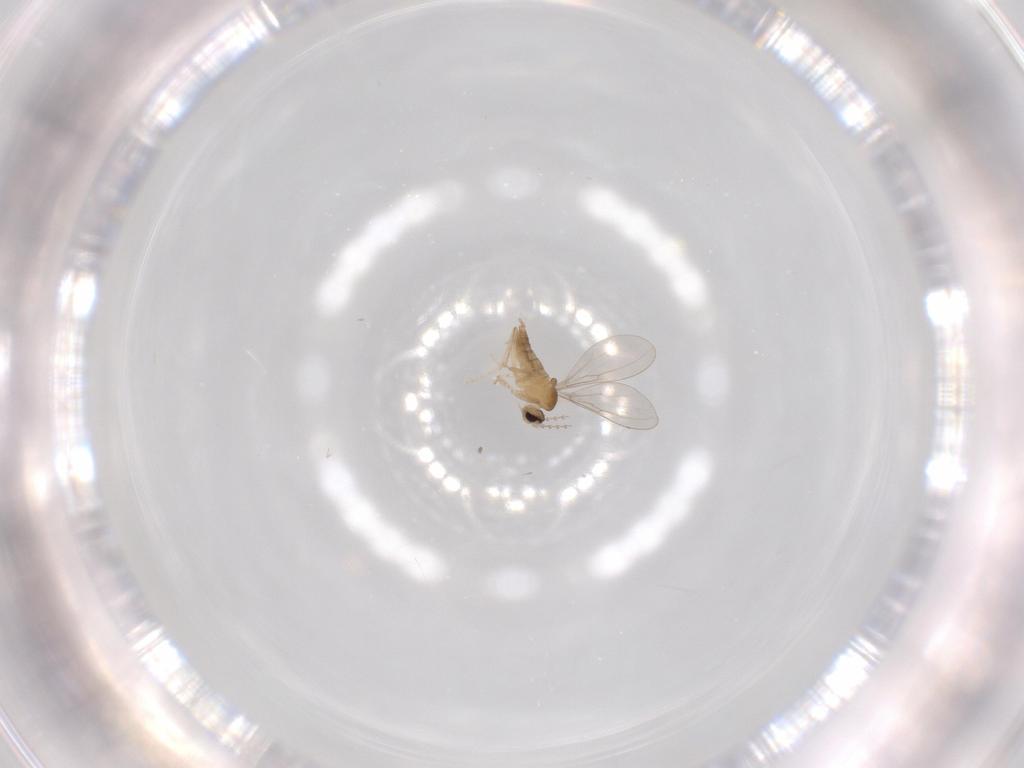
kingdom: Animalia
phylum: Arthropoda
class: Insecta
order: Diptera
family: Cecidomyiidae
